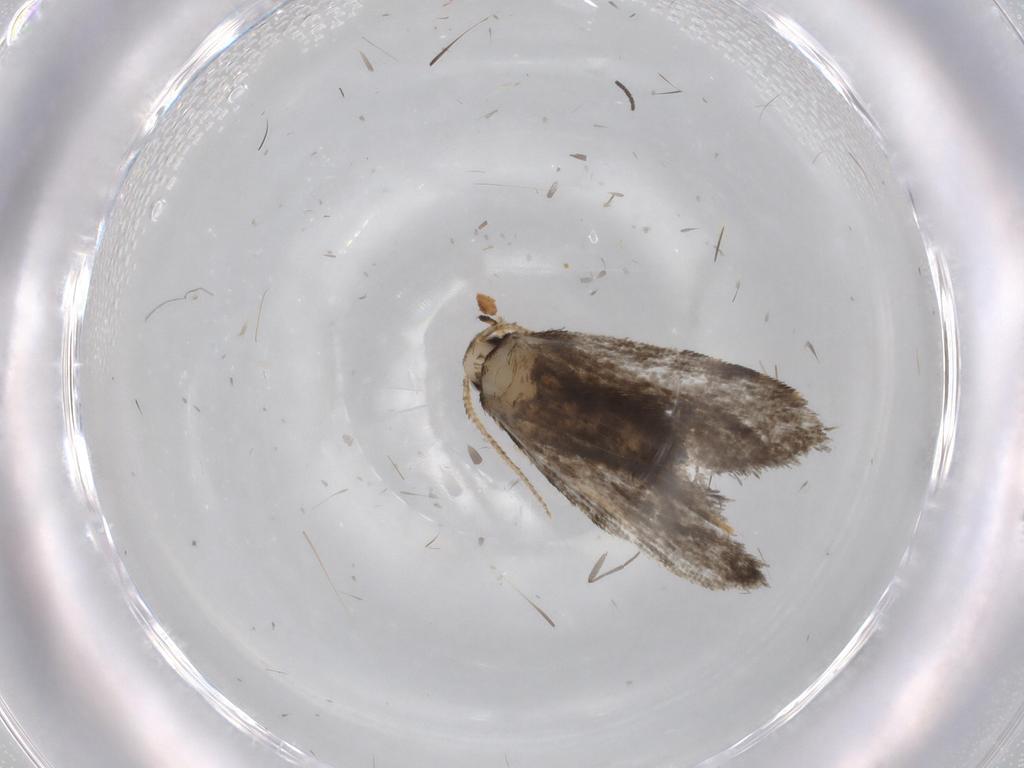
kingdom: Animalia
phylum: Arthropoda
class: Insecta
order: Lepidoptera
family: Psychidae
